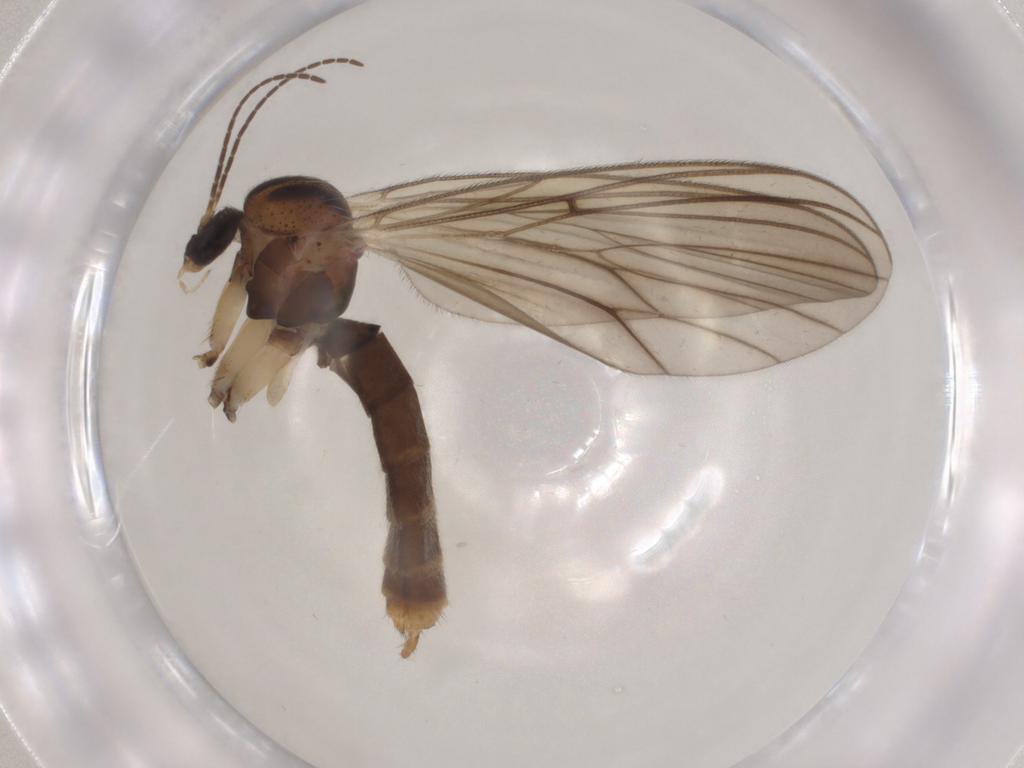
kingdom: Animalia
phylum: Arthropoda
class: Insecta
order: Diptera
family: Mycetophilidae
